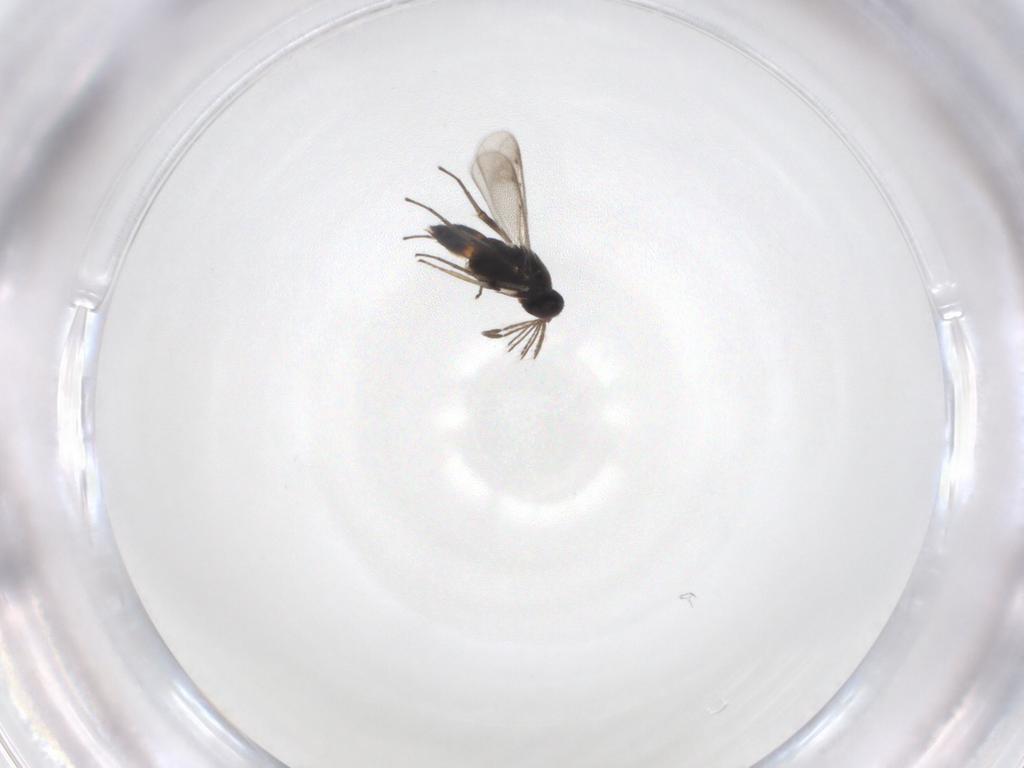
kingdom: Animalia
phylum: Arthropoda
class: Insecta
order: Hymenoptera
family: Eulophidae
